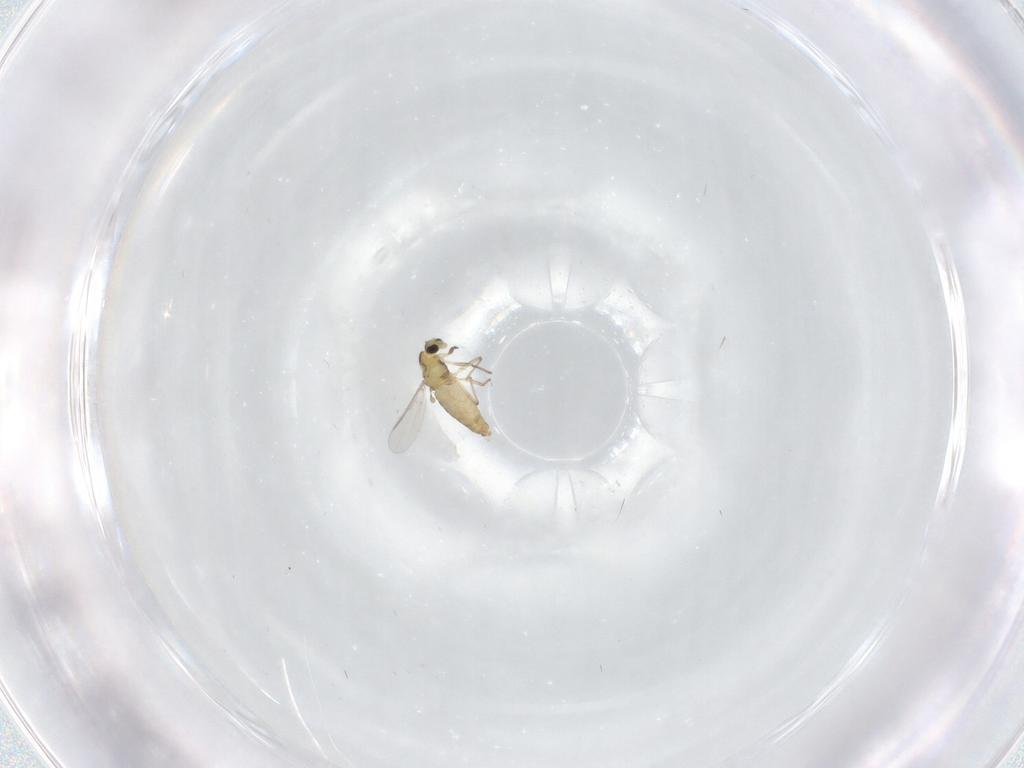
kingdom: Animalia
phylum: Arthropoda
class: Insecta
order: Diptera
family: Chironomidae
